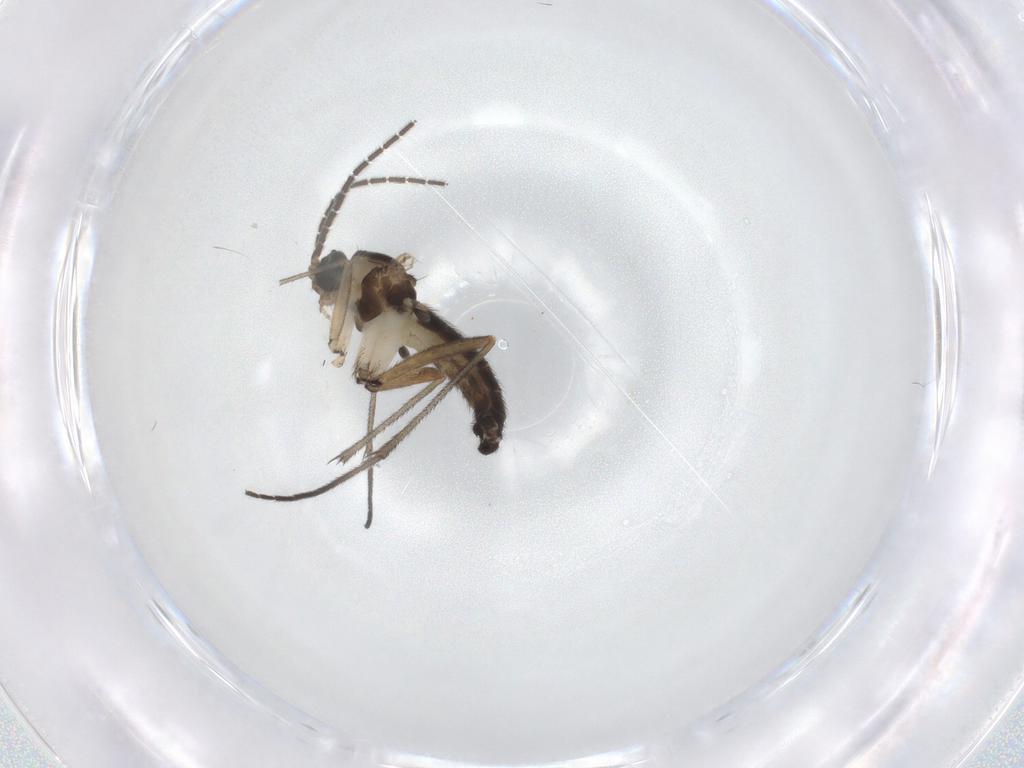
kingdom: Animalia
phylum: Arthropoda
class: Insecta
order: Diptera
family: Sciaridae
